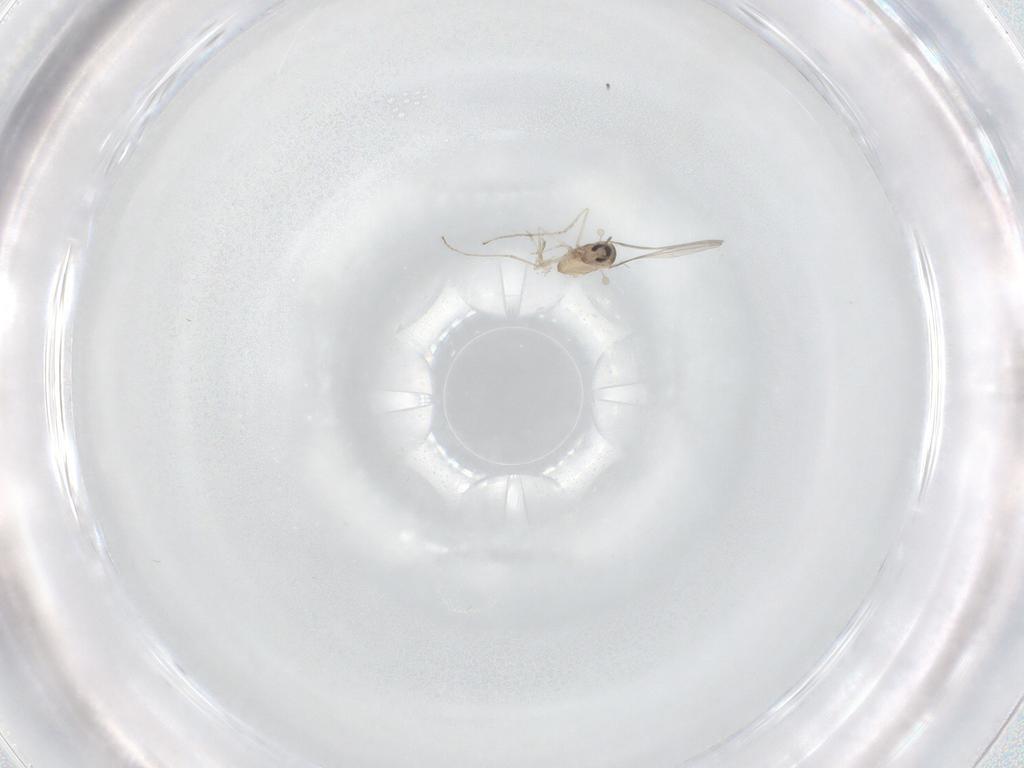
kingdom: Animalia
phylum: Arthropoda
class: Insecta
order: Diptera
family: Cecidomyiidae
